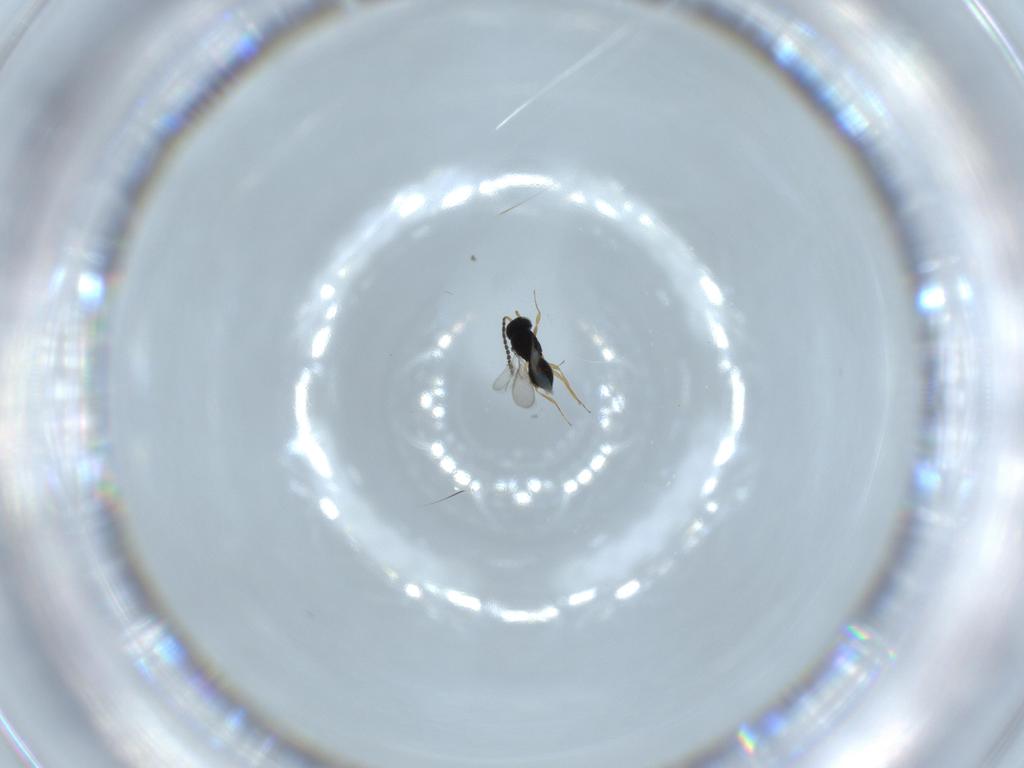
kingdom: Animalia
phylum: Arthropoda
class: Insecta
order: Hymenoptera
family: Scelionidae
